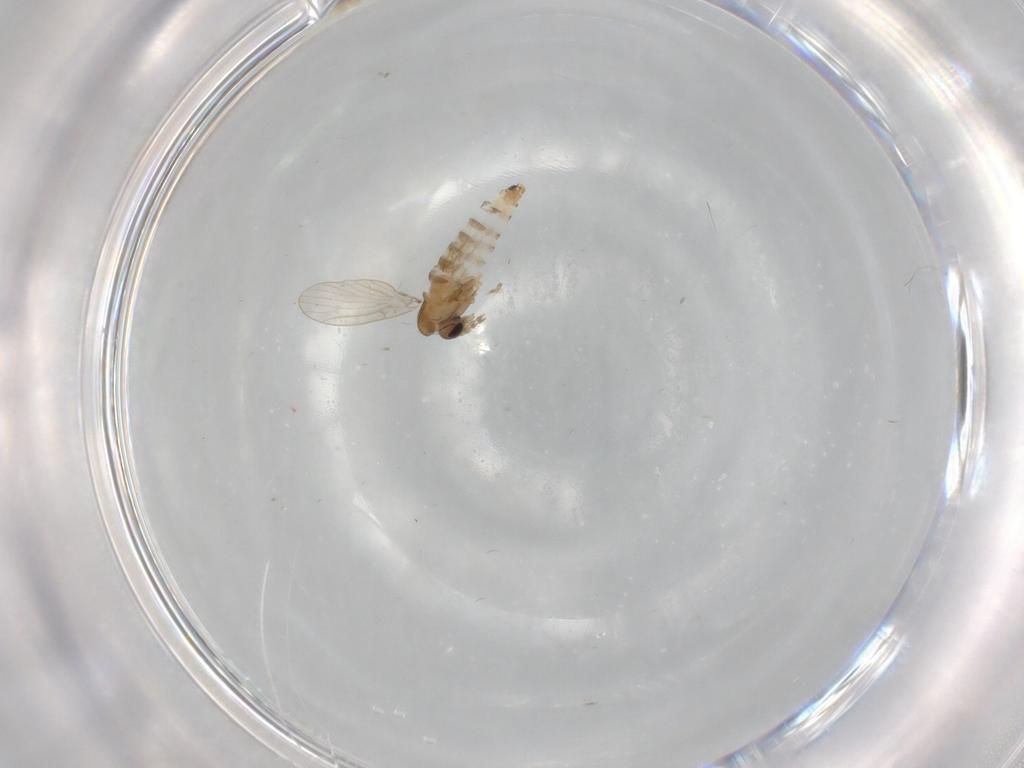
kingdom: Animalia
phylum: Arthropoda
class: Insecta
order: Diptera
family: Psychodidae
